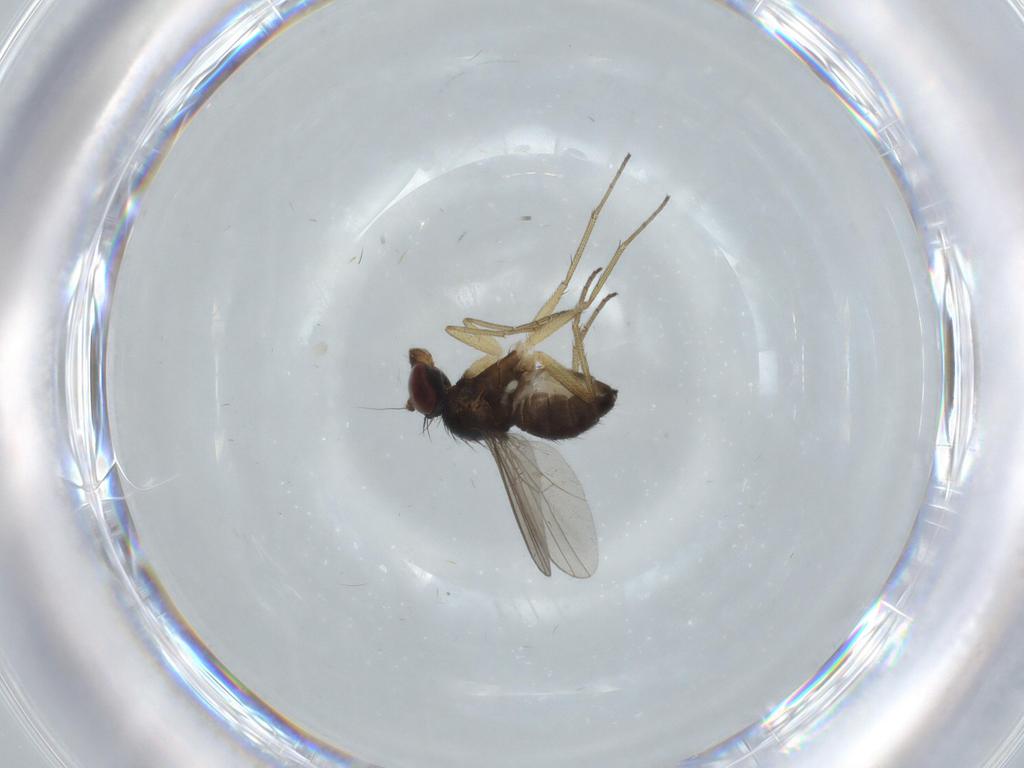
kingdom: Animalia
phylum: Arthropoda
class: Insecta
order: Diptera
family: Dolichopodidae
